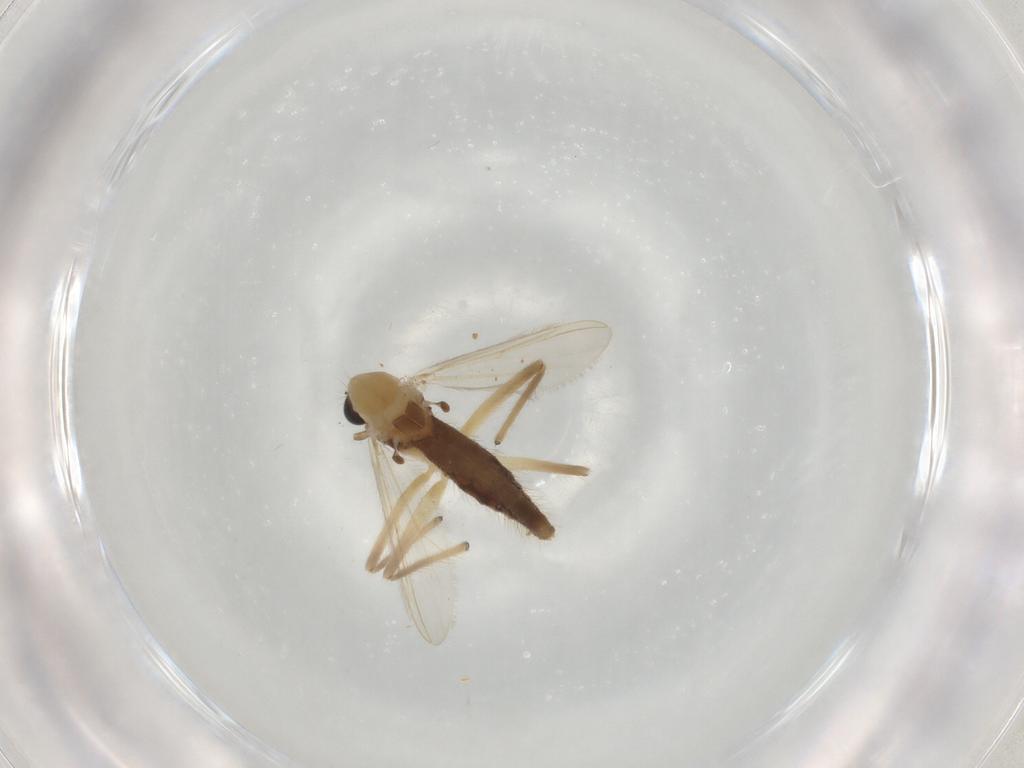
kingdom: Animalia
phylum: Arthropoda
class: Insecta
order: Diptera
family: Chironomidae
